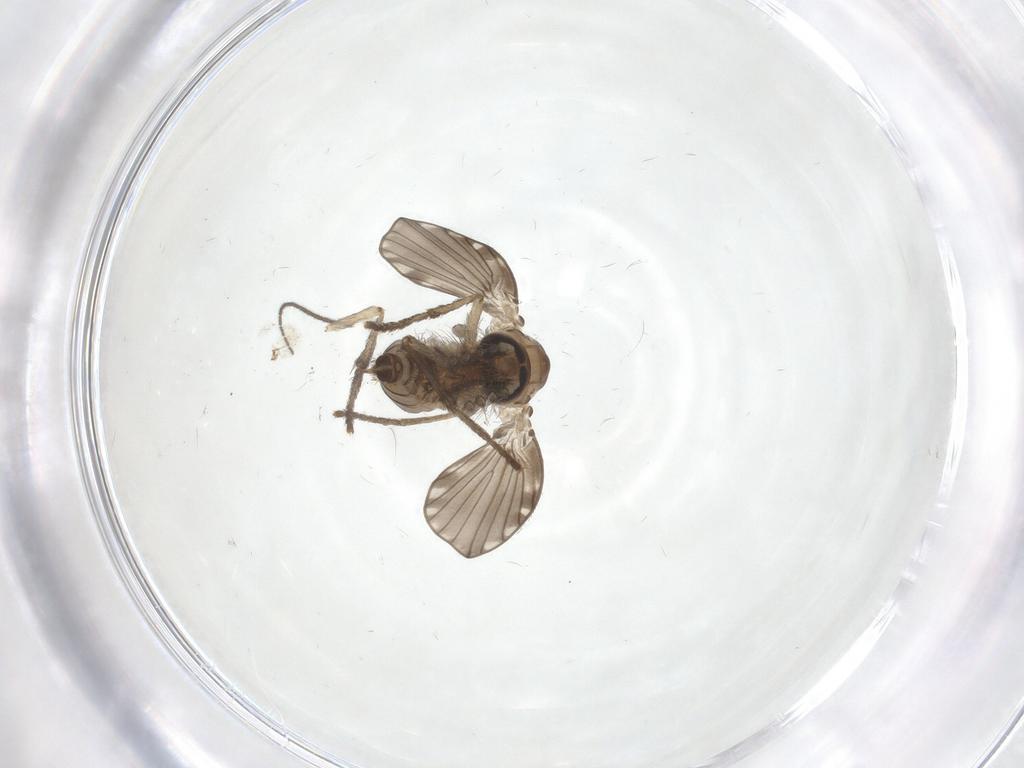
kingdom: Animalia
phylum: Arthropoda
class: Insecta
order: Diptera
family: Psychodidae
